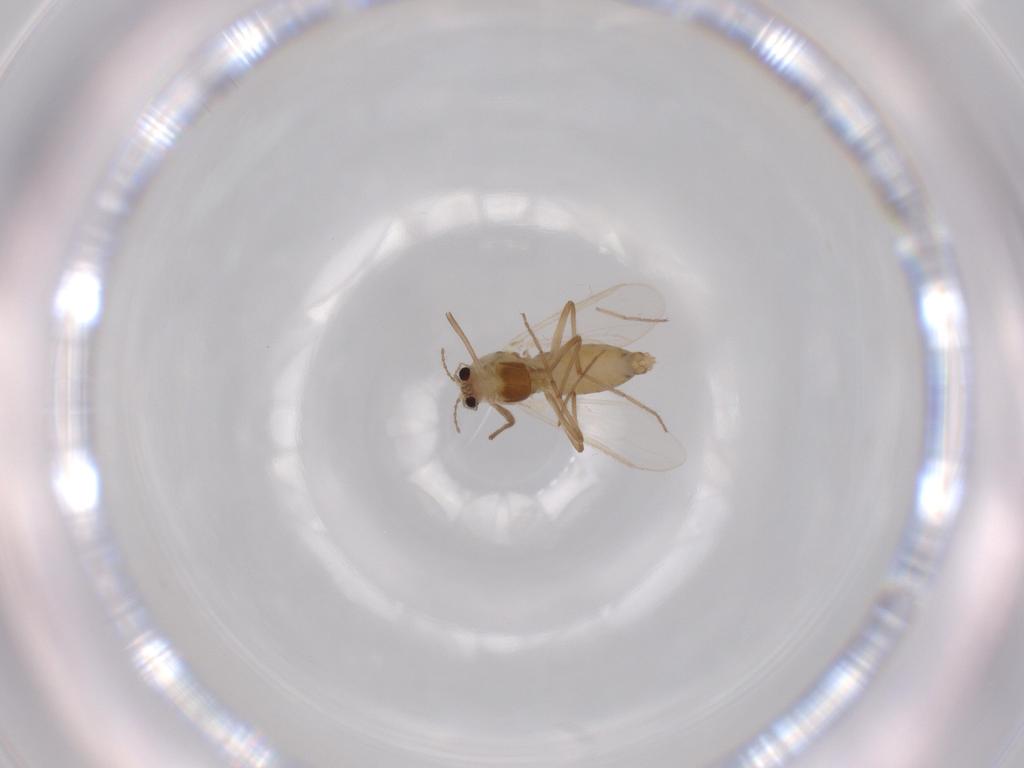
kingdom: Animalia
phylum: Arthropoda
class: Insecta
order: Diptera
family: Chironomidae
